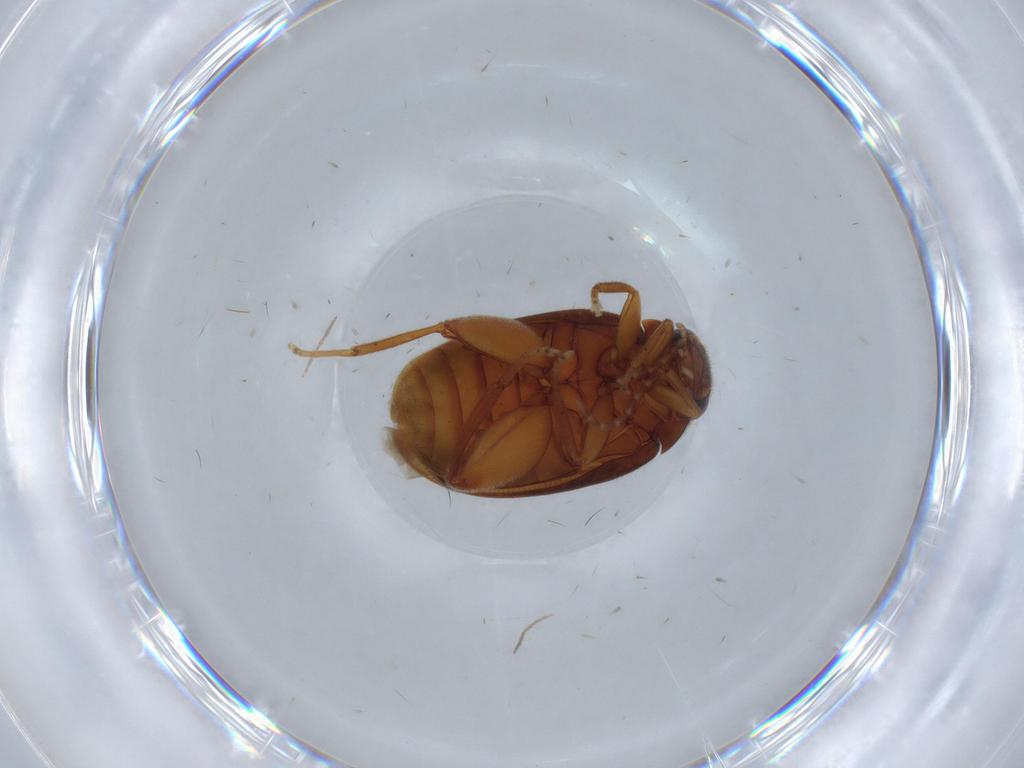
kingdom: Animalia
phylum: Arthropoda
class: Insecta
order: Coleoptera
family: Scirtidae
